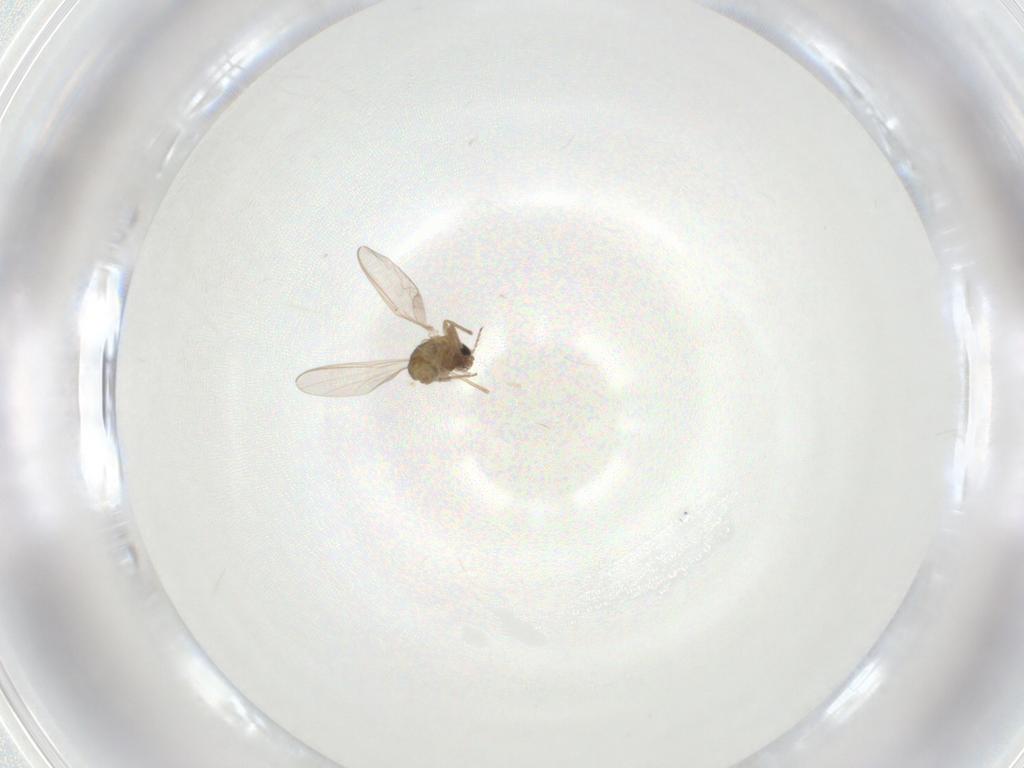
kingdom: Animalia
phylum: Arthropoda
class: Insecta
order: Diptera
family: Chironomidae
